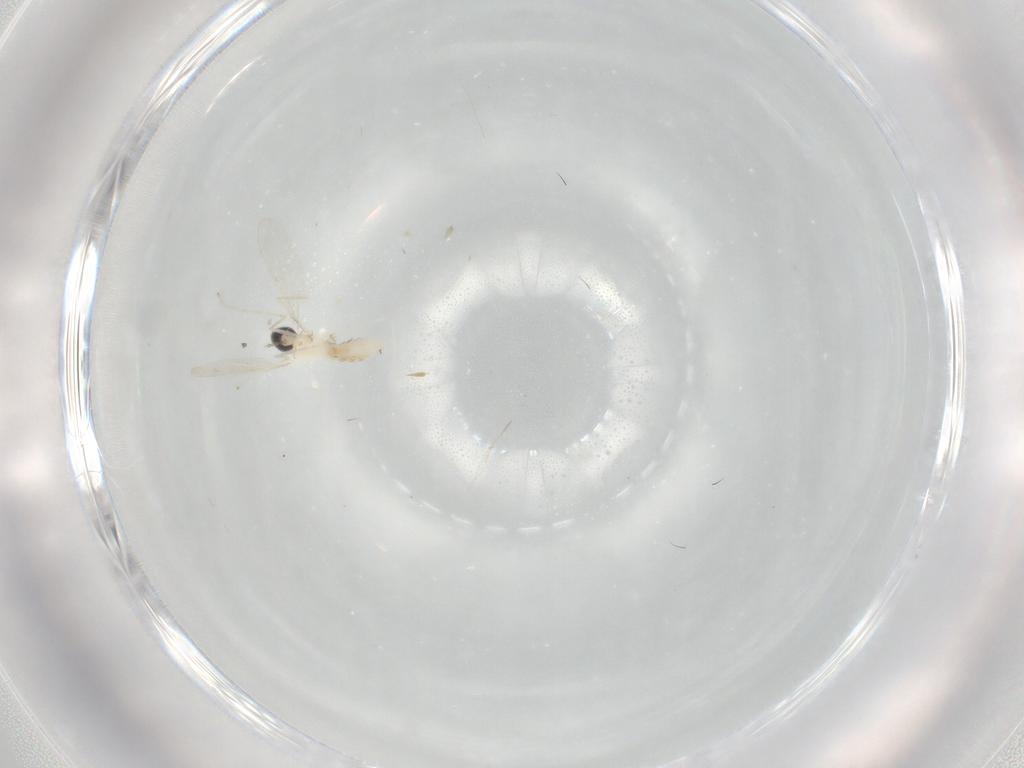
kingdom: Animalia
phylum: Arthropoda
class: Insecta
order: Diptera
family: Cecidomyiidae
